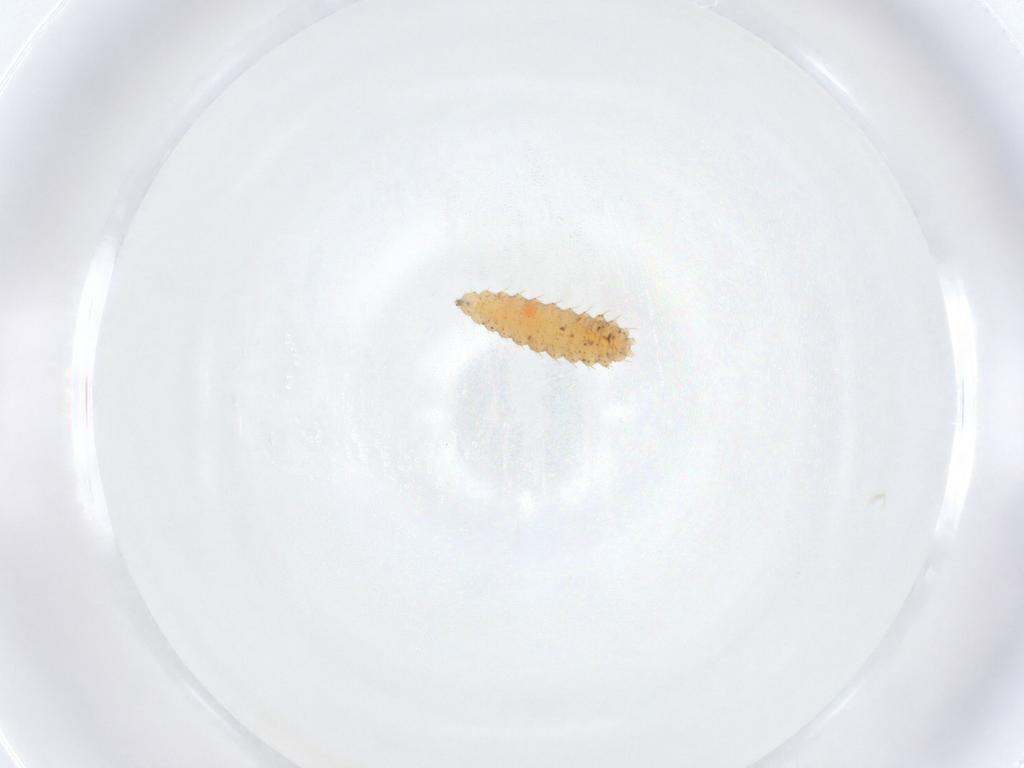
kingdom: Animalia
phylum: Arthropoda
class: Insecta
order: Diptera
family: Cecidomyiidae
